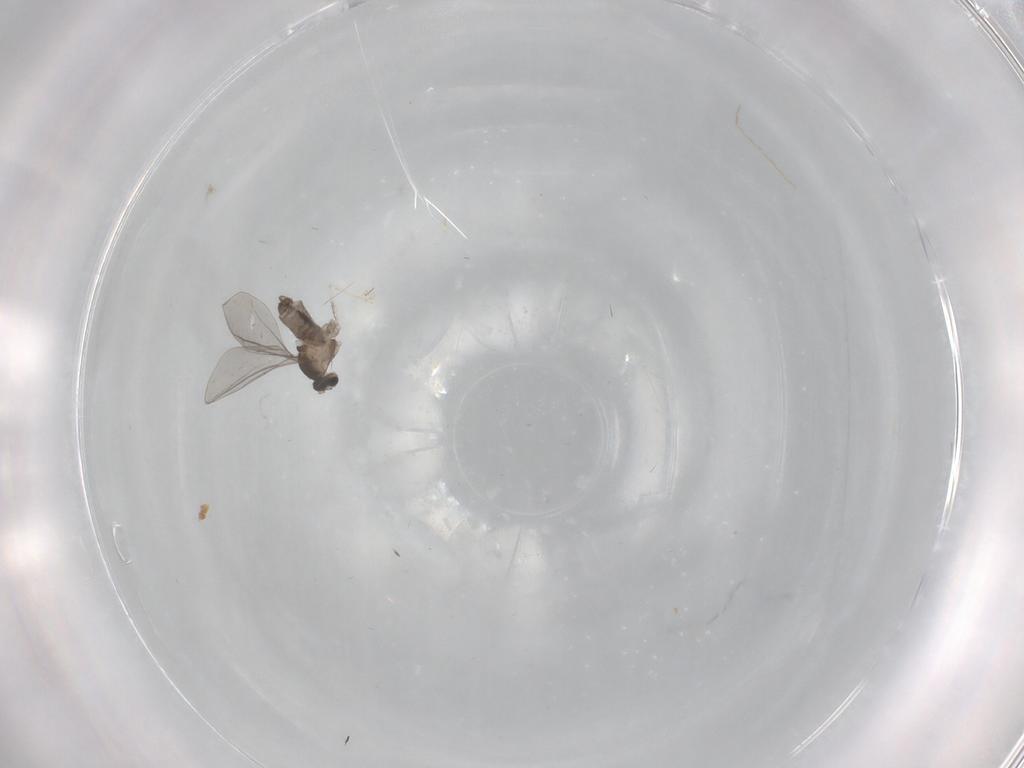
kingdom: Animalia
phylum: Arthropoda
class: Insecta
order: Diptera
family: Cecidomyiidae
